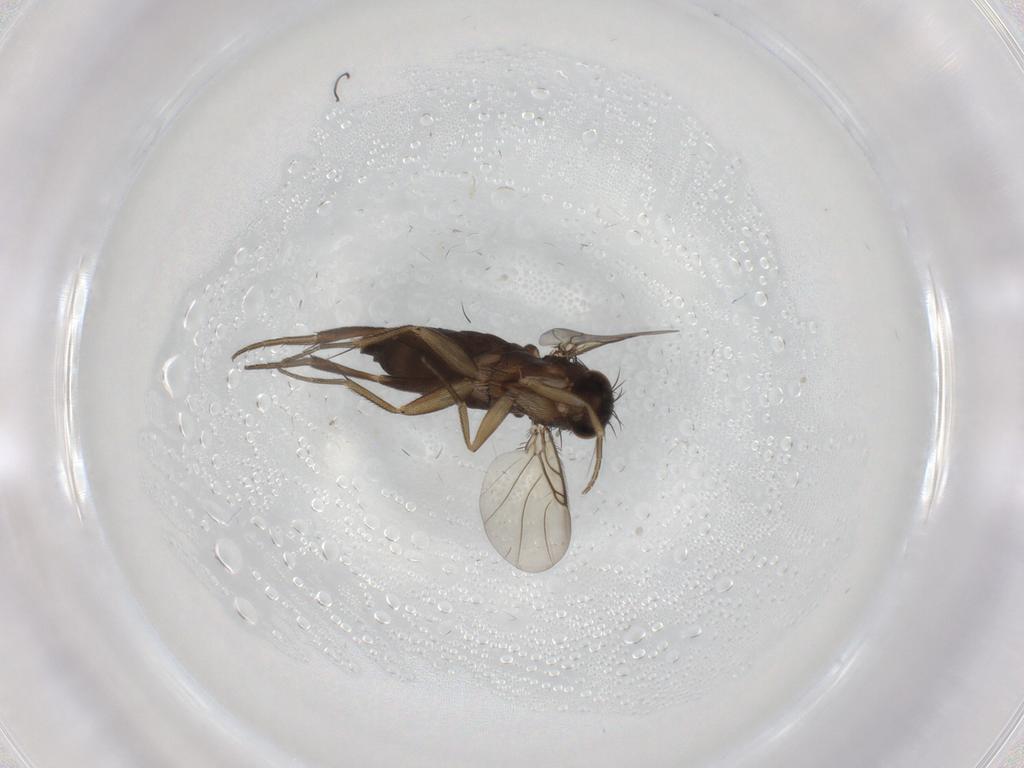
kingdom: Animalia
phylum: Arthropoda
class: Insecta
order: Diptera
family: Phoridae
